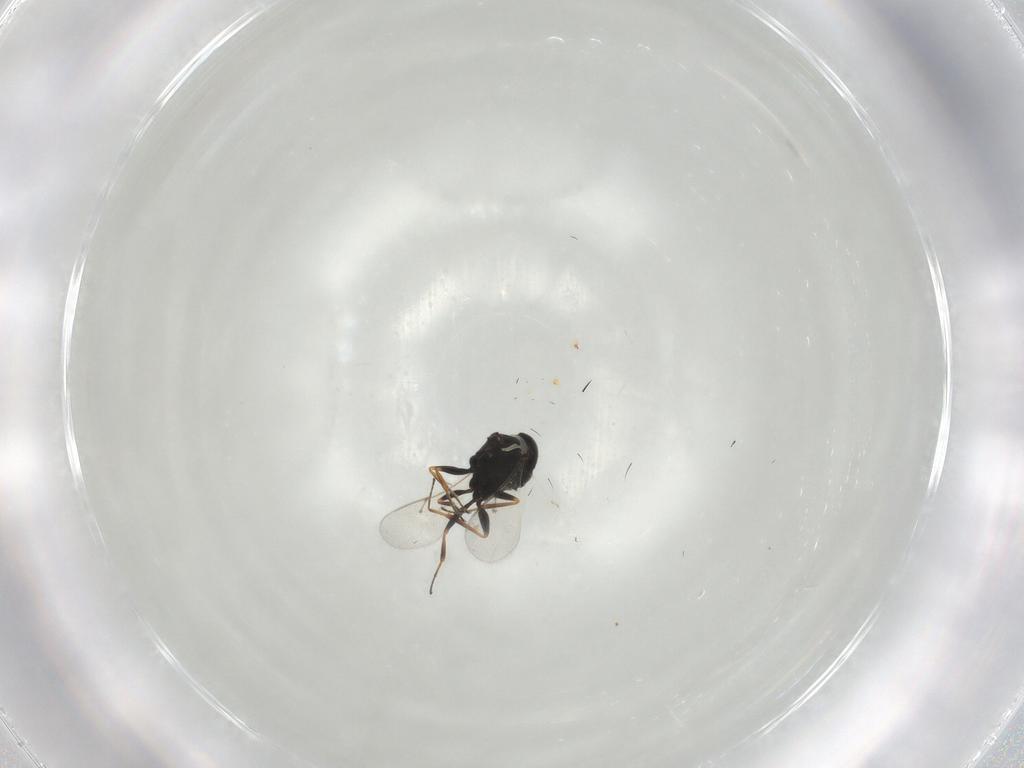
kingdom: Animalia
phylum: Arthropoda
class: Insecta
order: Hymenoptera
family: Scelionidae
